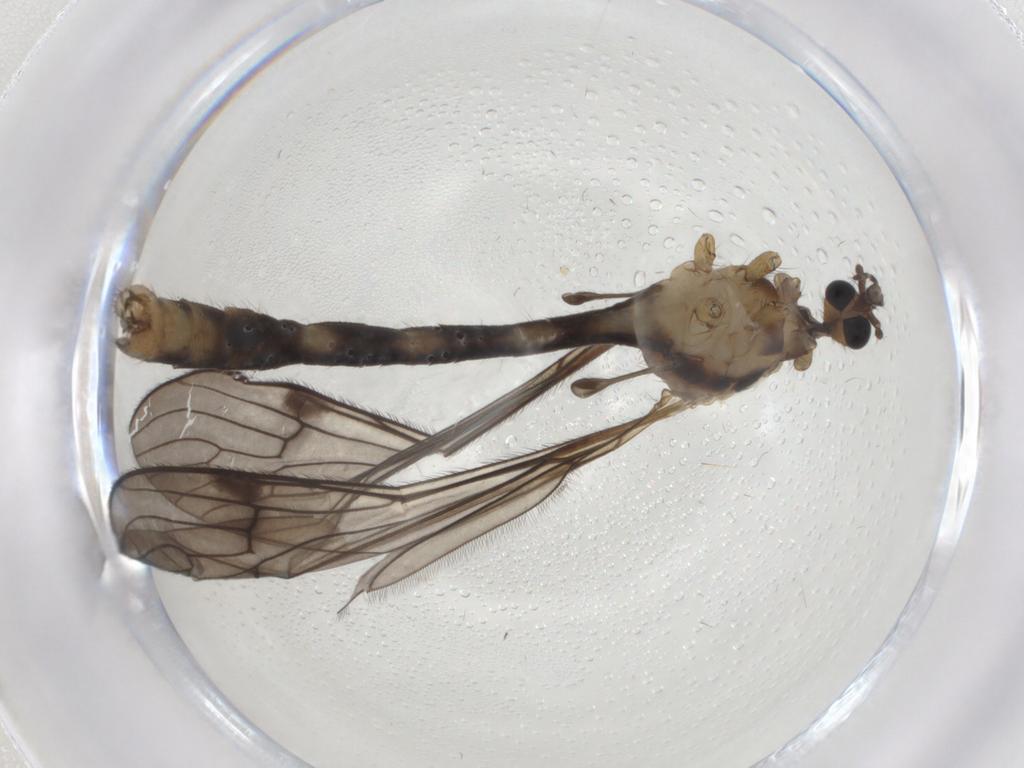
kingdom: Animalia
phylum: Arthropoda
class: Insecta
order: Diptera
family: Limoniidae
